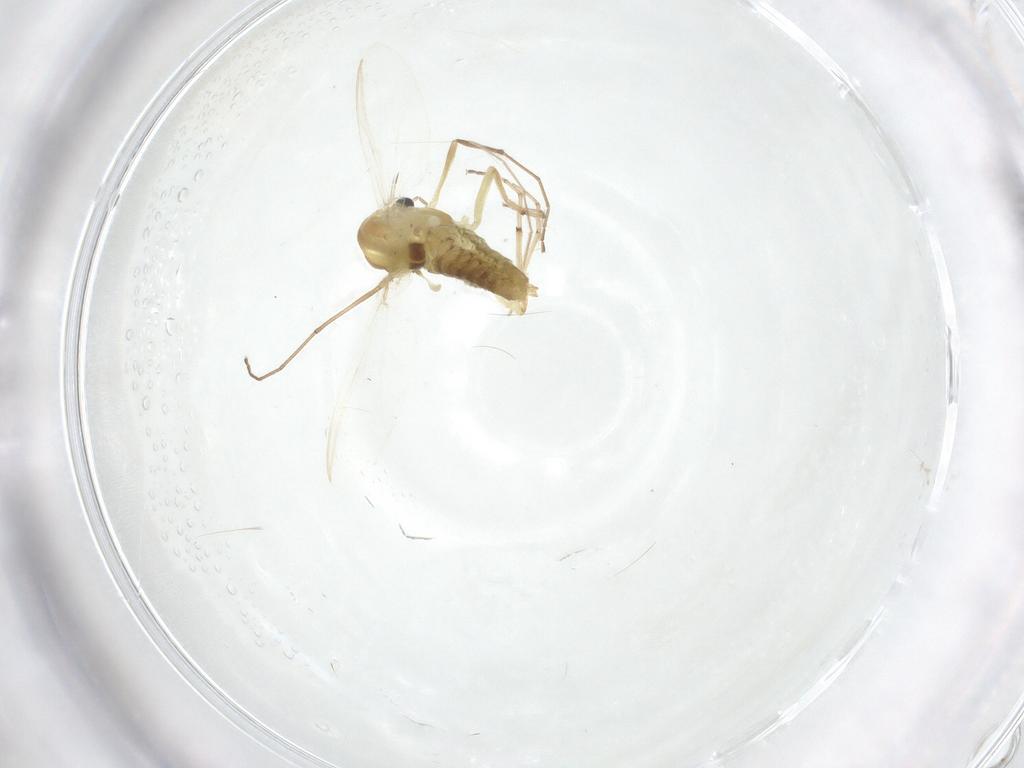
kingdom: Animalia
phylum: Arthropoda
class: Insecta
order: Diptera
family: Chironomidae
